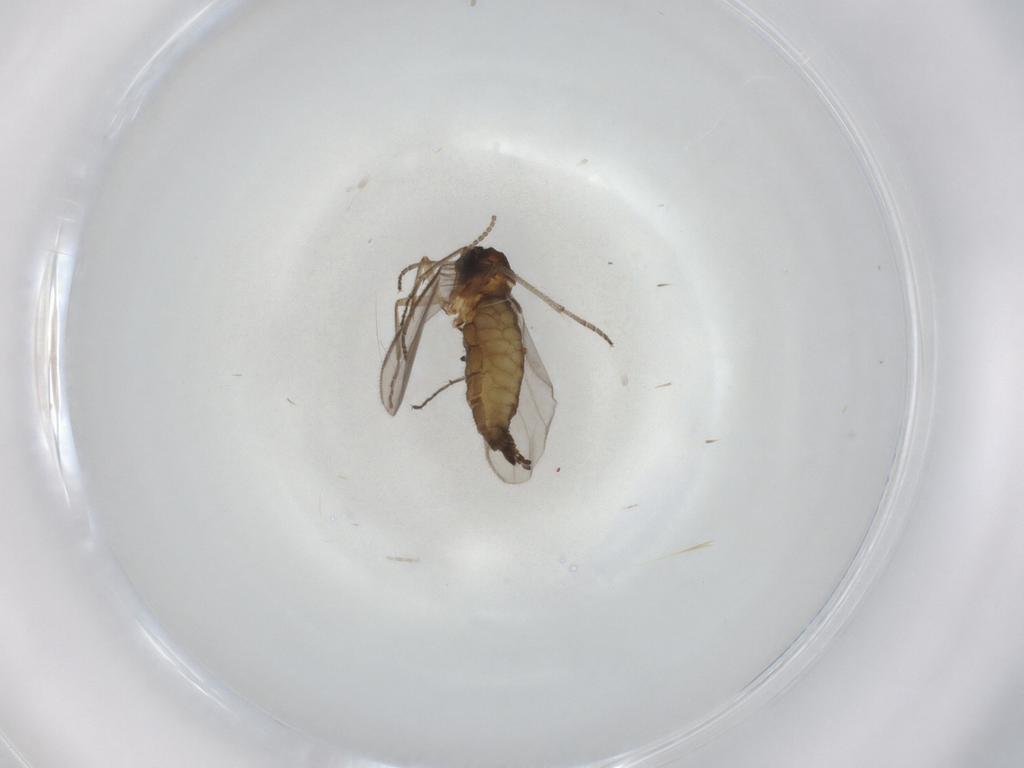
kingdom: Animalia
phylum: Arthropoda
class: Insecta
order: Diptera
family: Sciaridae
